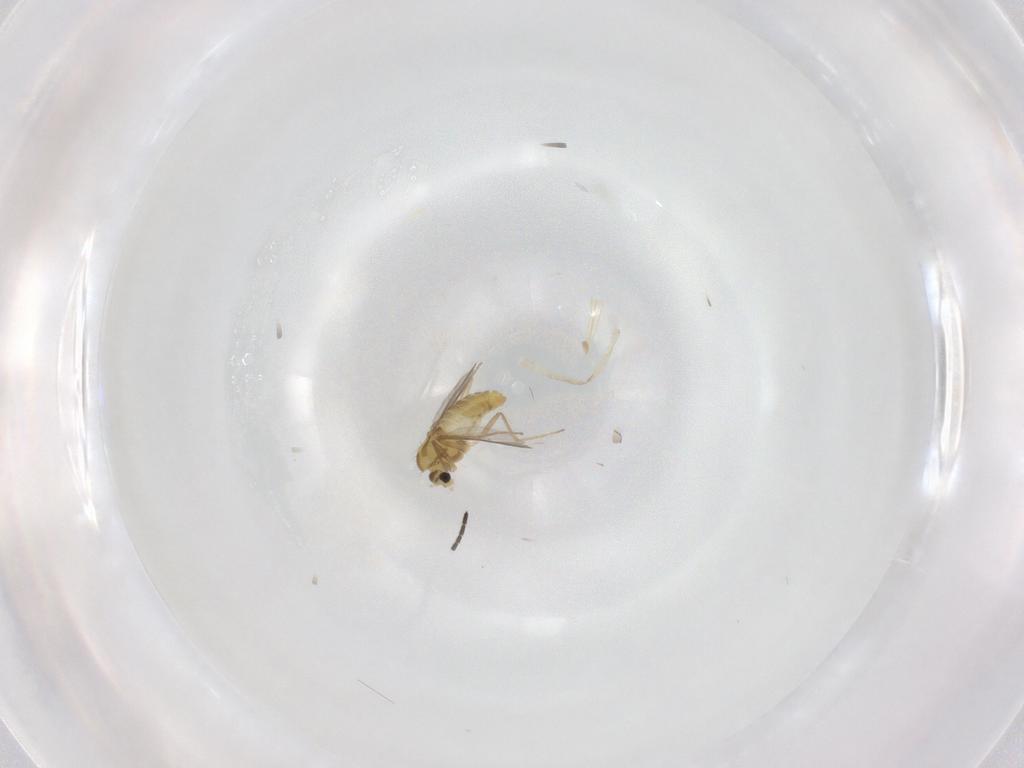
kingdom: Animalia
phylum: Arthropoda
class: Insecta
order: Diptera
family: Chironomidae
